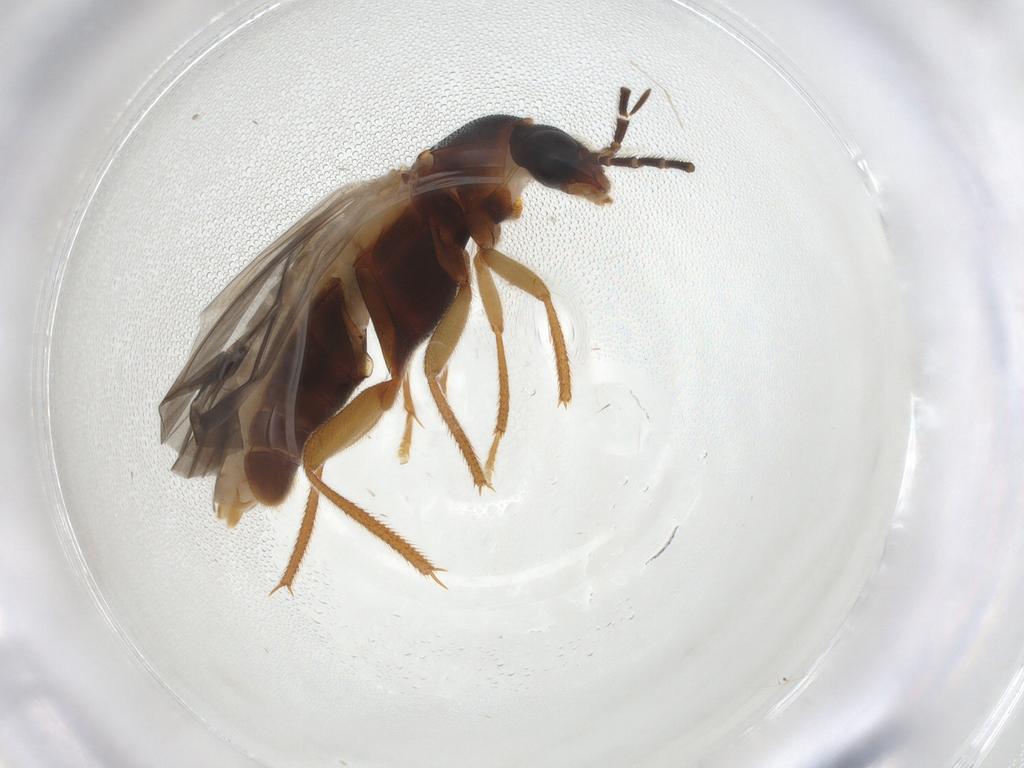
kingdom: Animalia
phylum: Arthropoda
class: Insecta
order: Coleoptera
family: Ptilodactylidae
